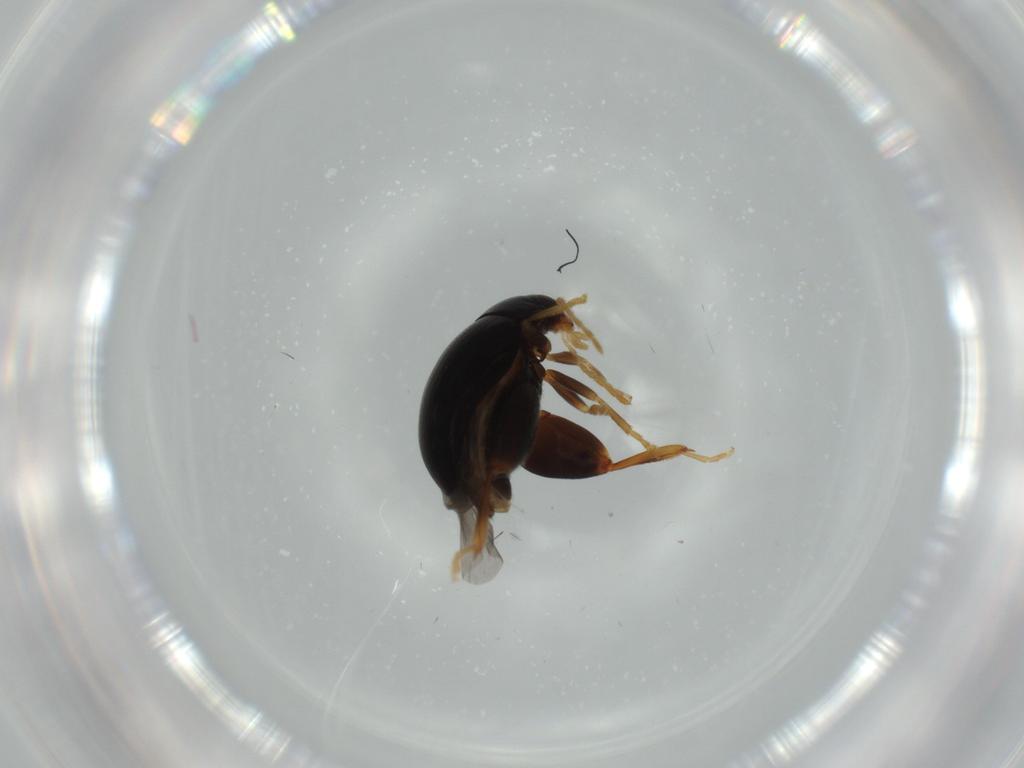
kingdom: Animalia
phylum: Arthropoda
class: Insecta
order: Coleoptera
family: Chrysomelidae
